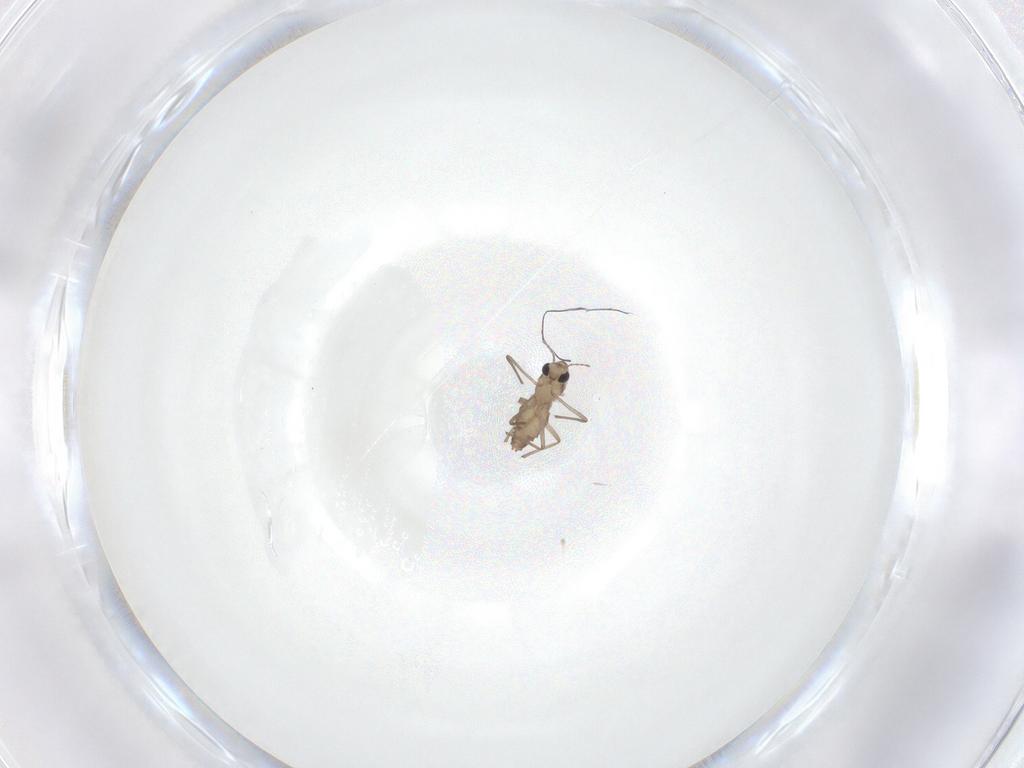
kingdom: Animalia
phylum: Arthropoda
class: Insecta
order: Diptera
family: Chironomidae
